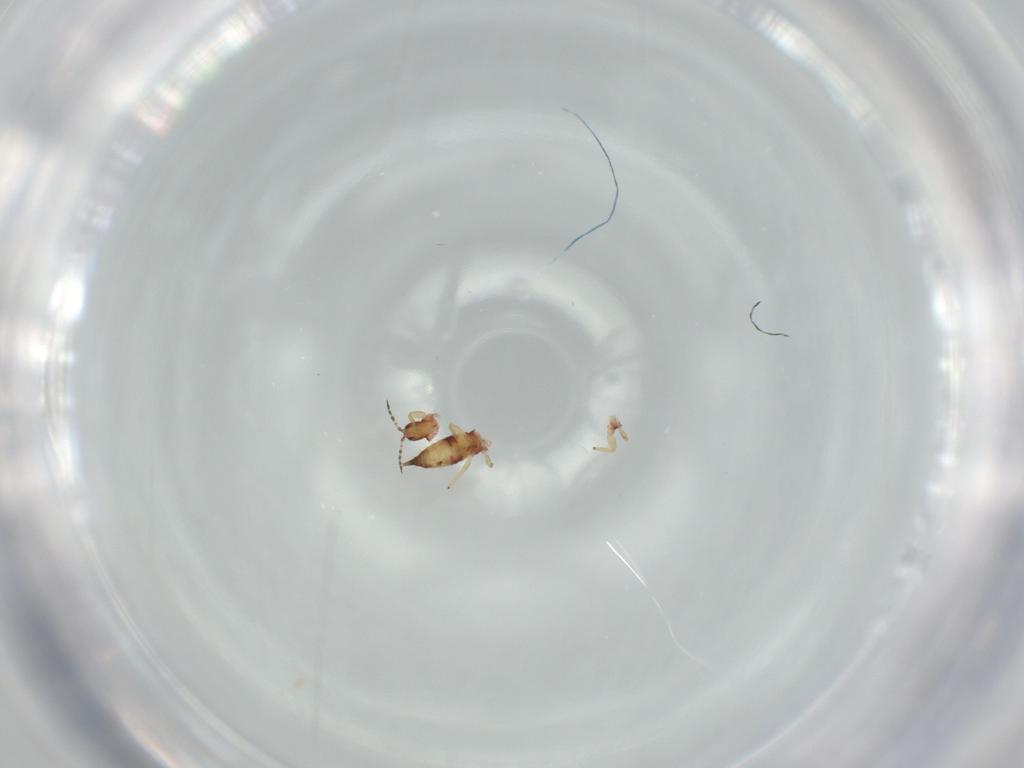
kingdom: Animalia
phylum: Arthropoda
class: Insecta
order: Thysanoptera
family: Phlaeothripidae
